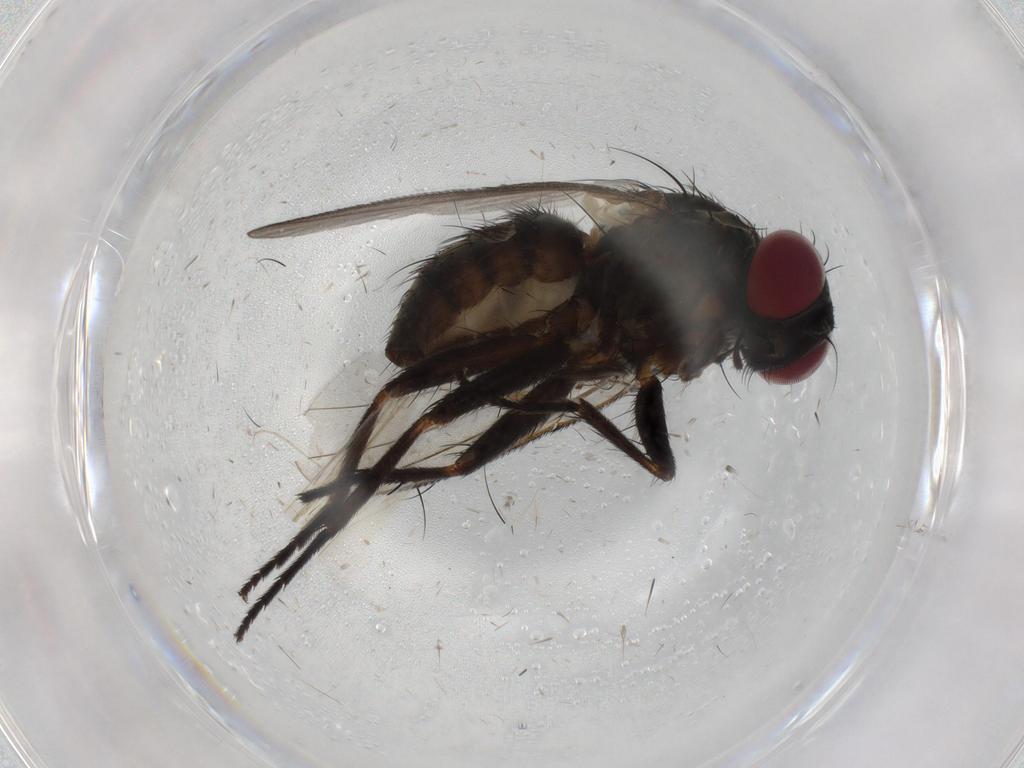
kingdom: Animalia
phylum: Arthropoda
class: Insecta
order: Diptera
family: Muscidae
